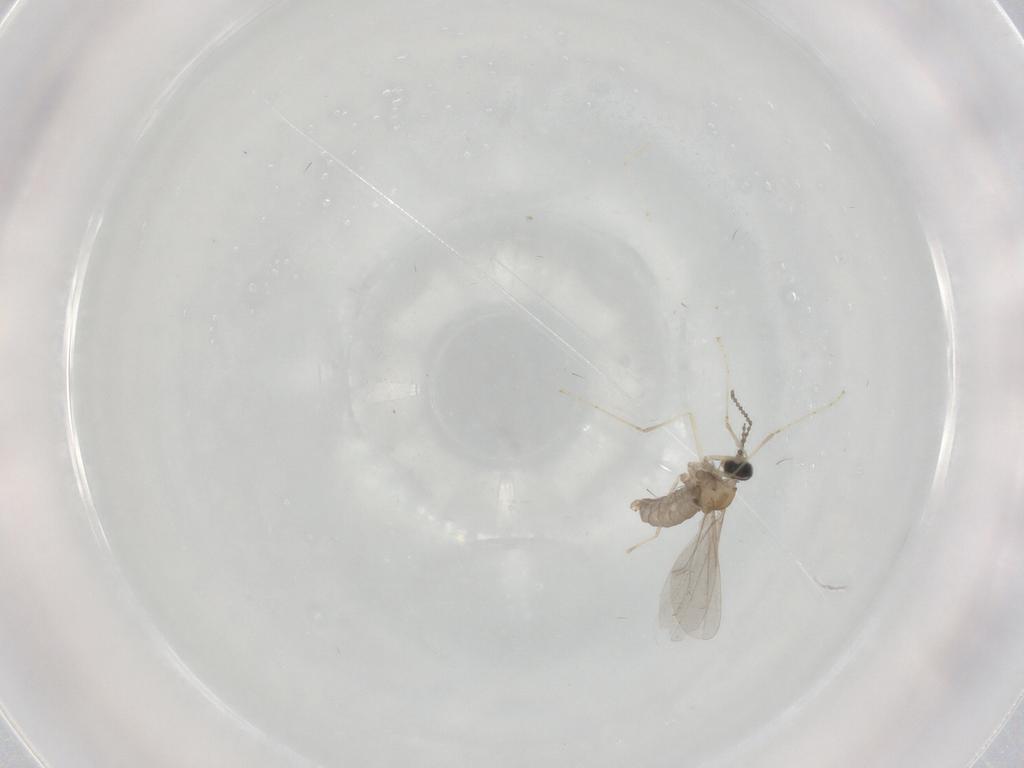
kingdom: Animalia
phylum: Arthropoda
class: Insecta
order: Diptera
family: Cecidomyiidae
